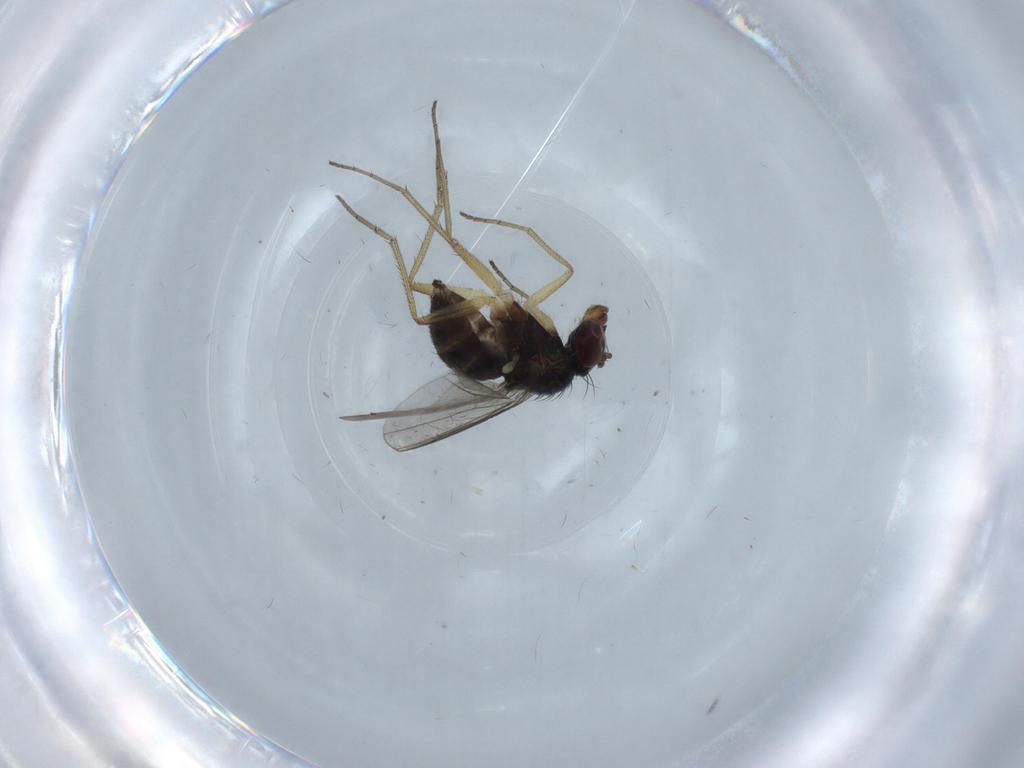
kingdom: Animalia
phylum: Arthropoda
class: Insecta
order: Diptera
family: Dolichopodidae
